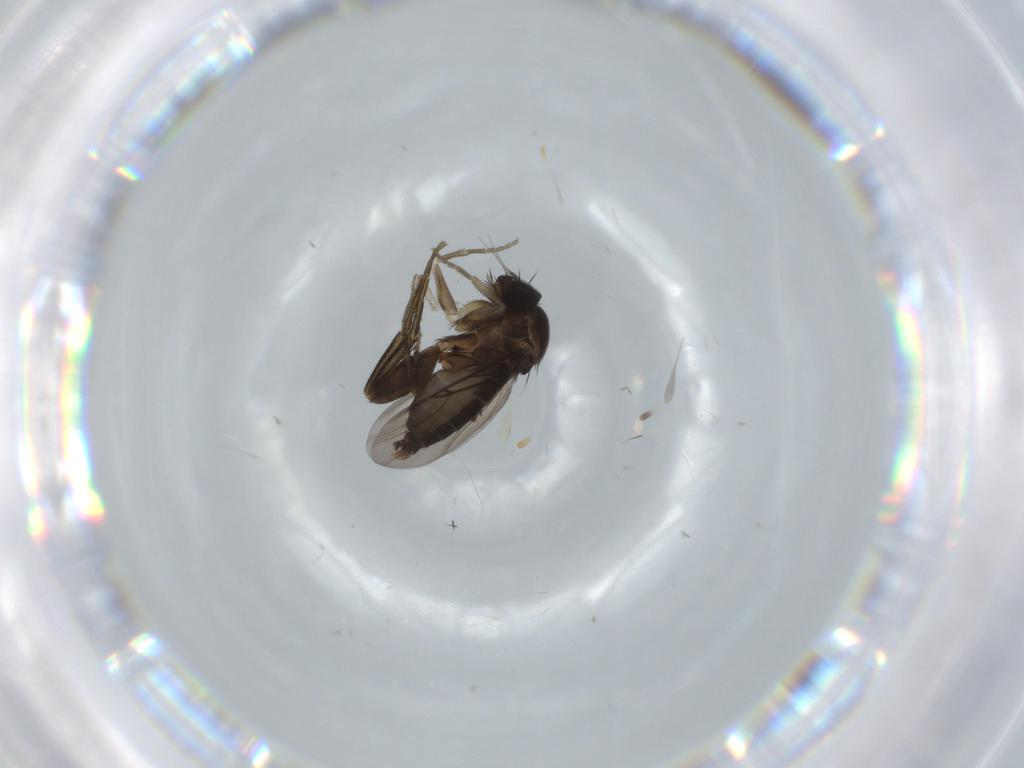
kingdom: Animalia
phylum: Arthropoda
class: Insecta
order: Diptera
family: Phoridae
